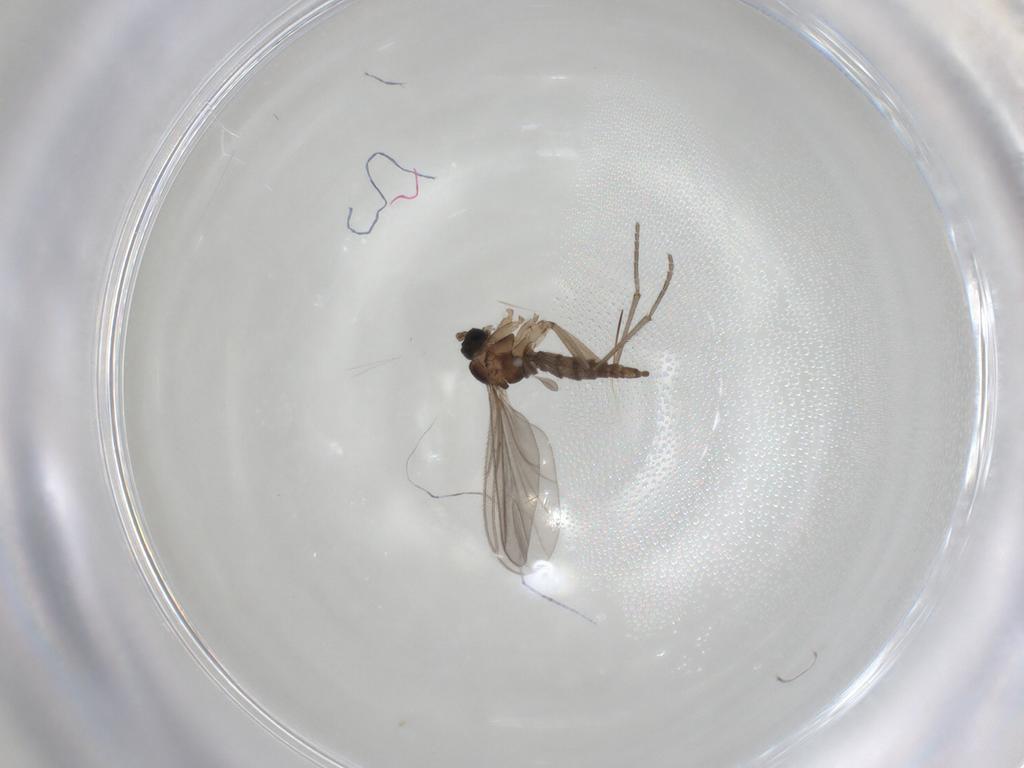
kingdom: Animalia
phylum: Arthropoda
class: Insecta
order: Diptera
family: Sciaridae
